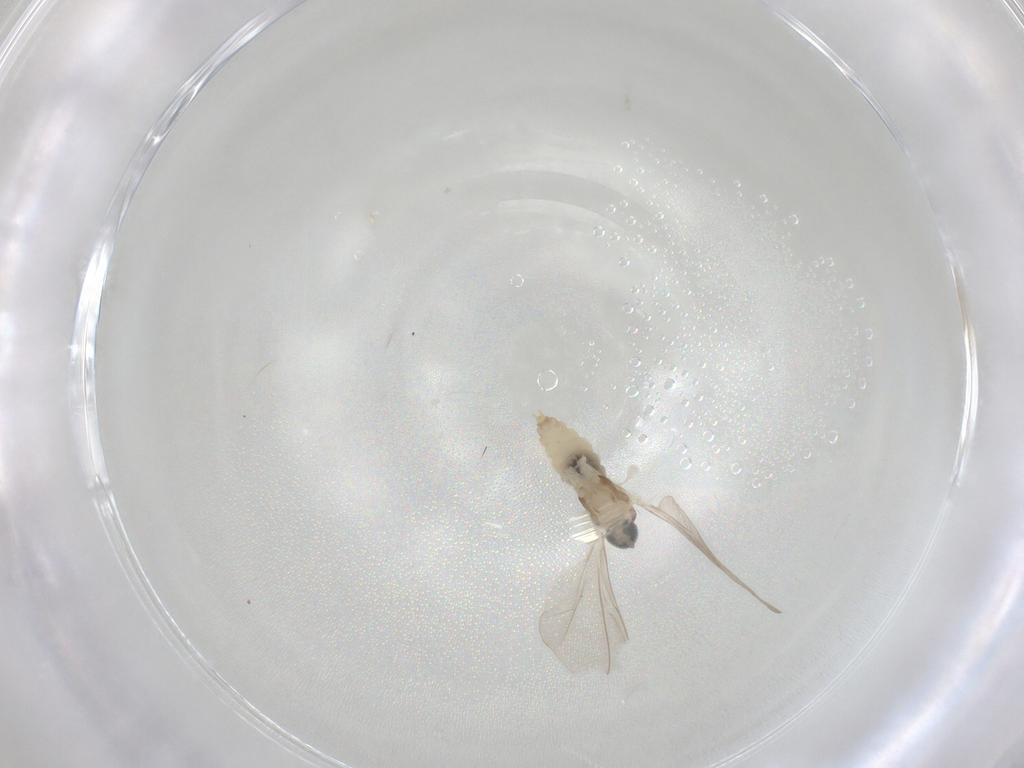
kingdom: Animalia
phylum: Arthropoda
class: Insecta
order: Diptera
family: Cecidomyiidae
